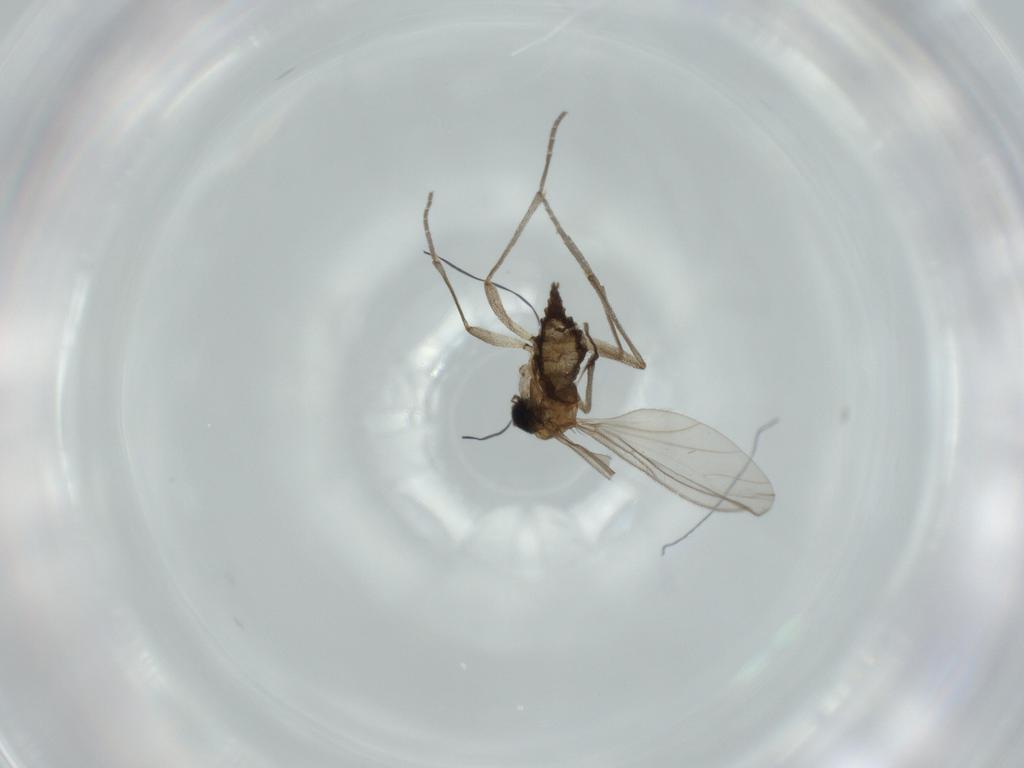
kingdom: Animalia
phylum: Arthropoda
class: Insecta
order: Diptera
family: Sciaridae
